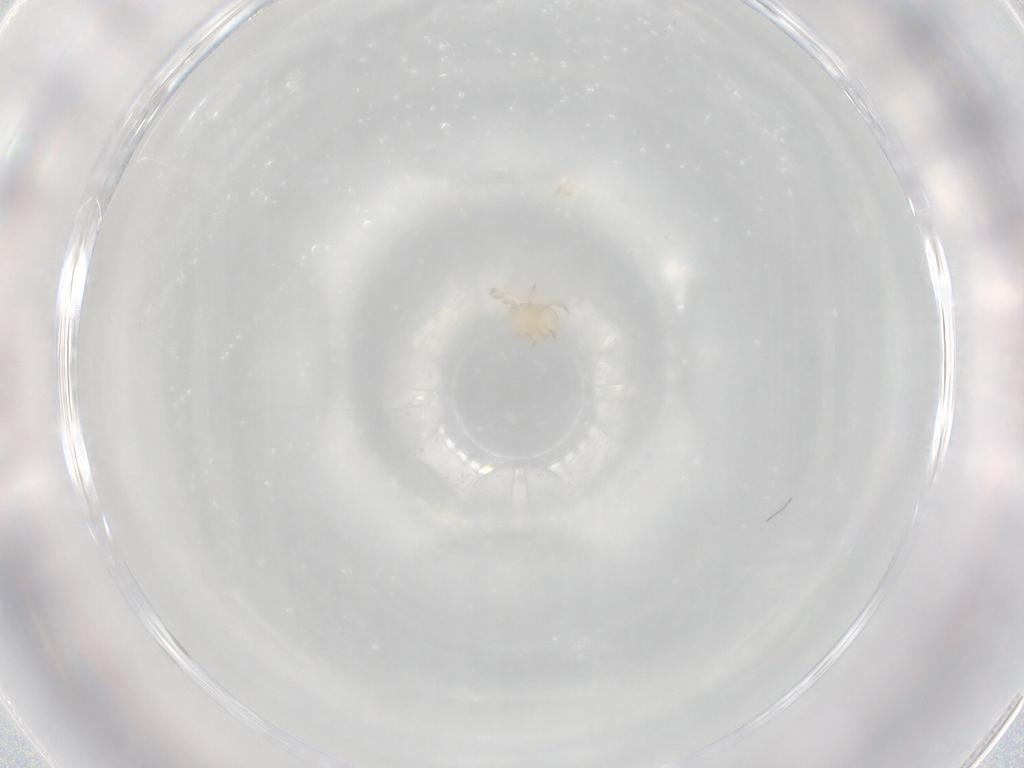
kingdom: Animalia
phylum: Arthropoda
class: Arachnida
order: Mesostigmata
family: Melicharidae
